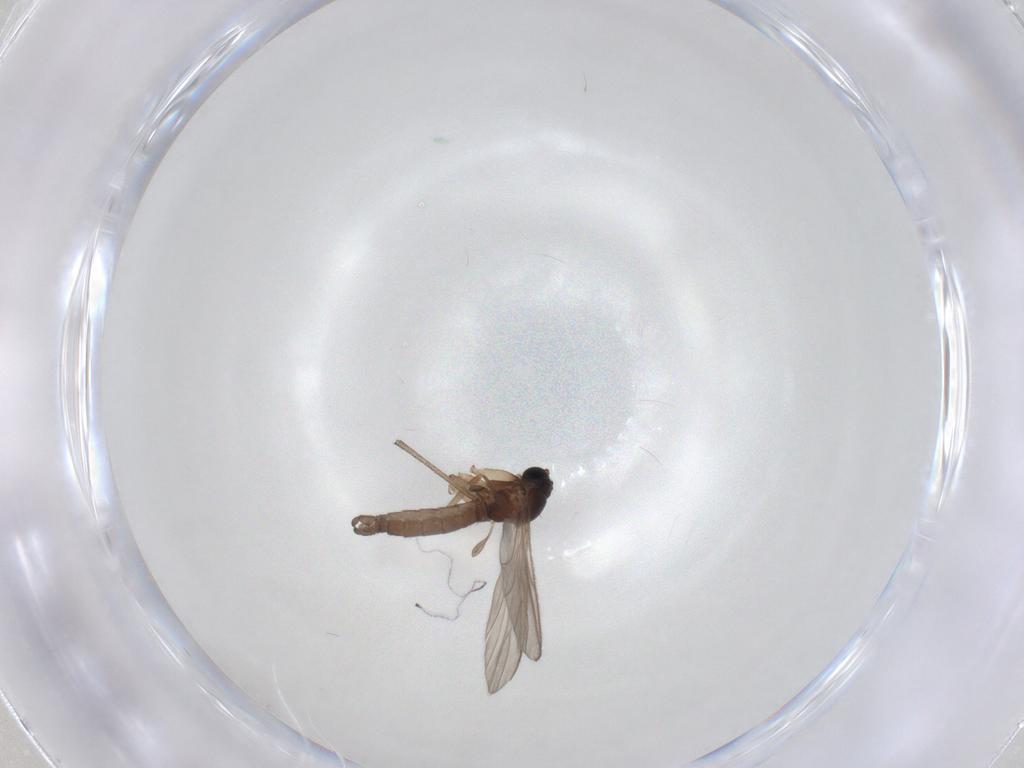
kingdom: Animalia
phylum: Arthropoda
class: Insecta
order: Diptera
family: Sciaridae
